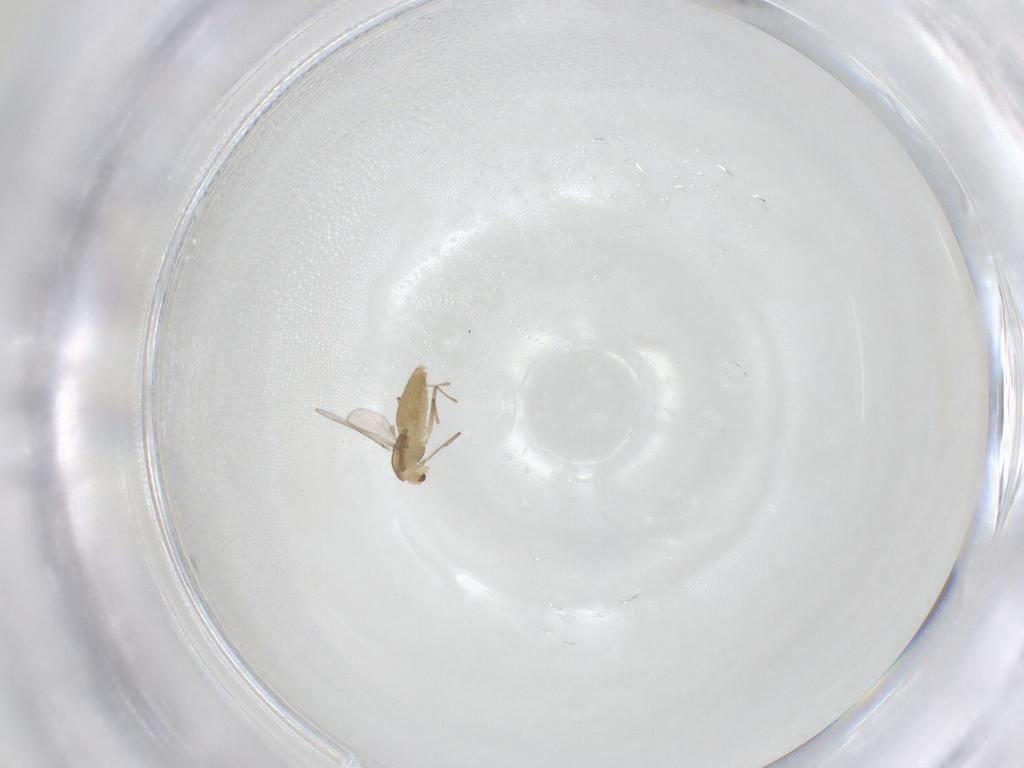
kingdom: Animalia
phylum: Arthropoda
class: Insecta
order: Diptera
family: Chironomidae
